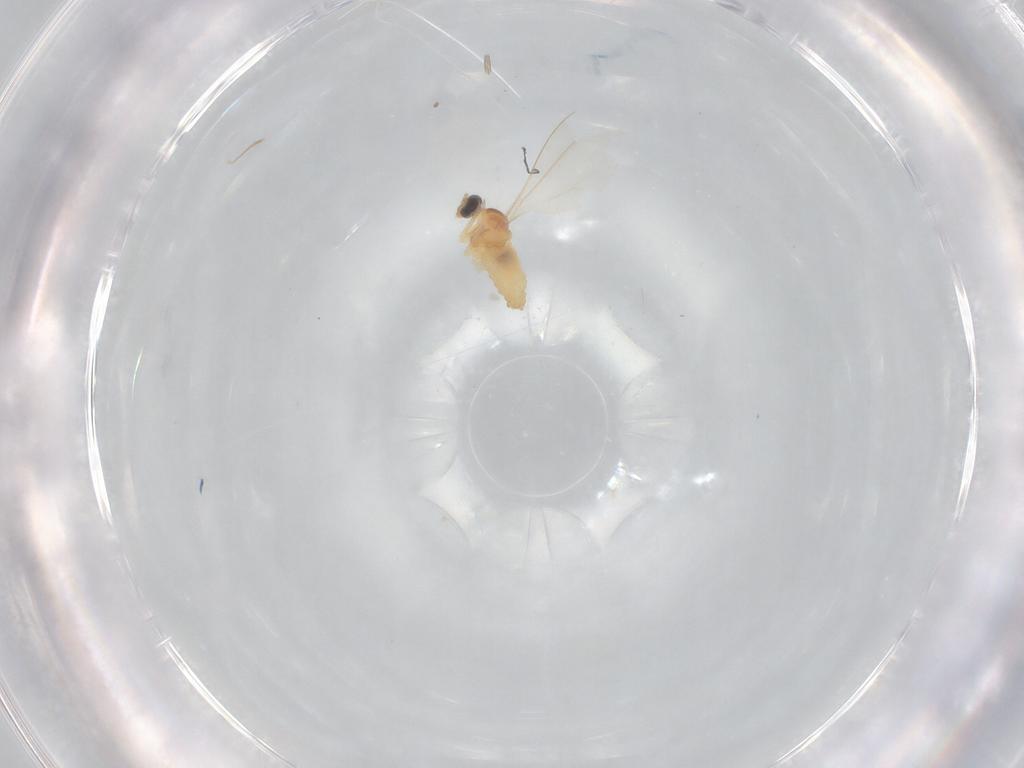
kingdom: Animalia
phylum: Arthropoda
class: Insecta
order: Diptera
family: Cecidomyiidae
